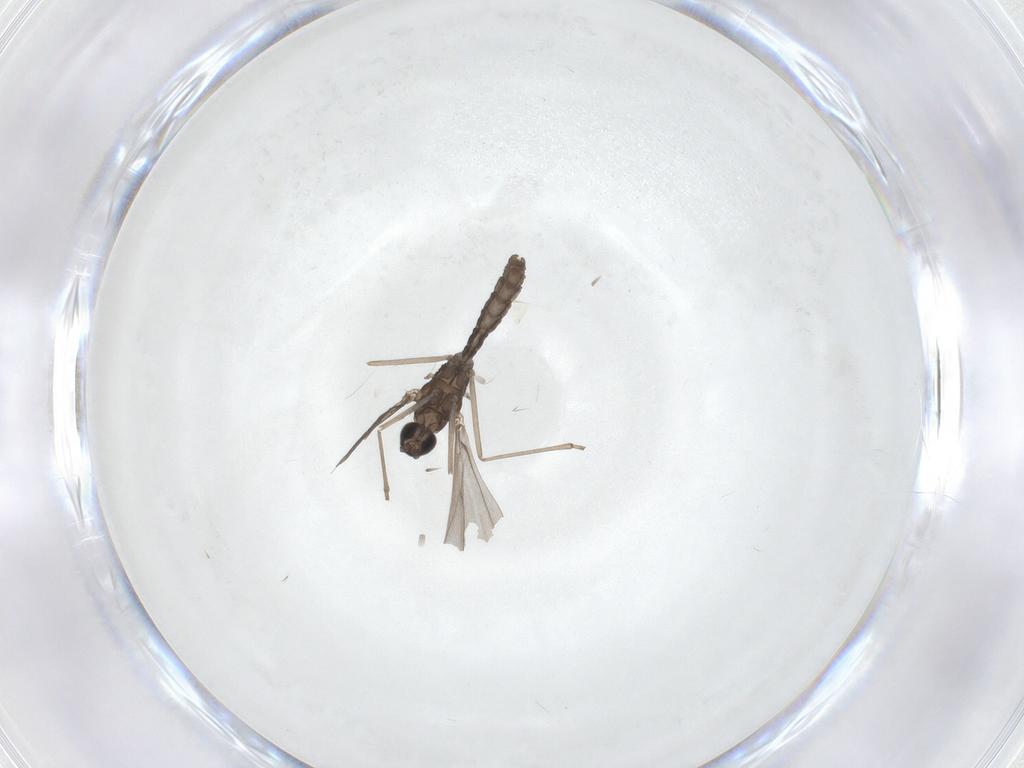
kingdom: Animalia
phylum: Arthropoda
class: Insecta
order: Diptera
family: Cecidomyiidae
